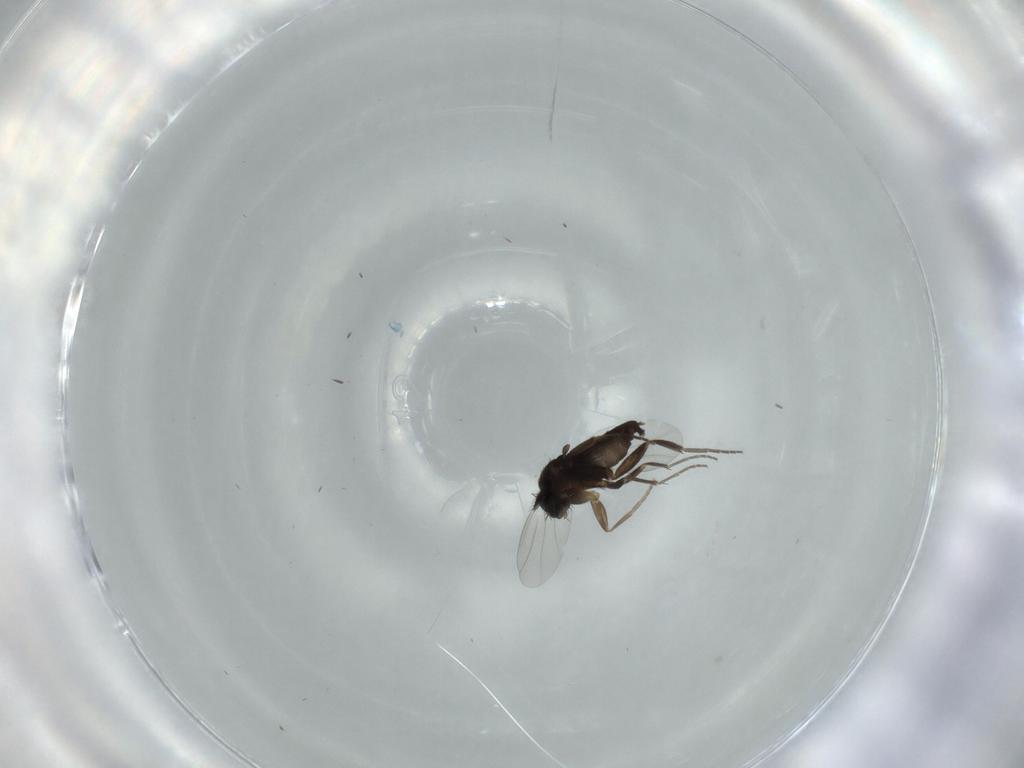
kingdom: Animalia
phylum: Arthropoda
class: Insecta
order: Diptera
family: Phoridae
